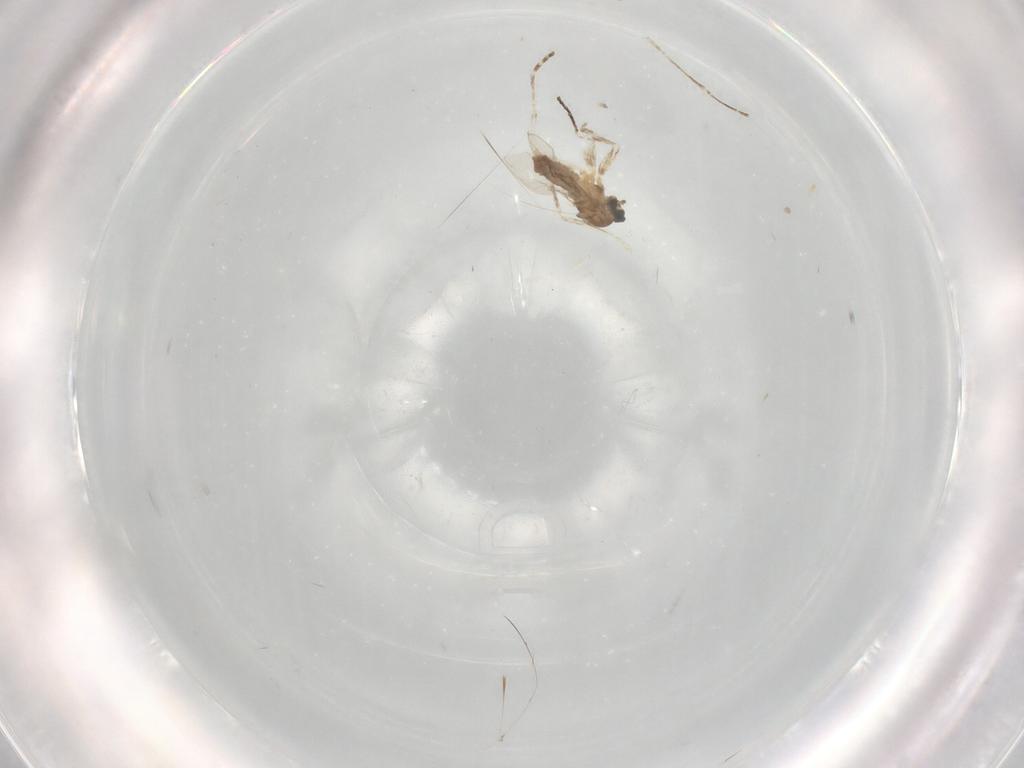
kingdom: Animalia
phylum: Arthropoda
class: Insecta
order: Diptera
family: Cecidomyiidae
